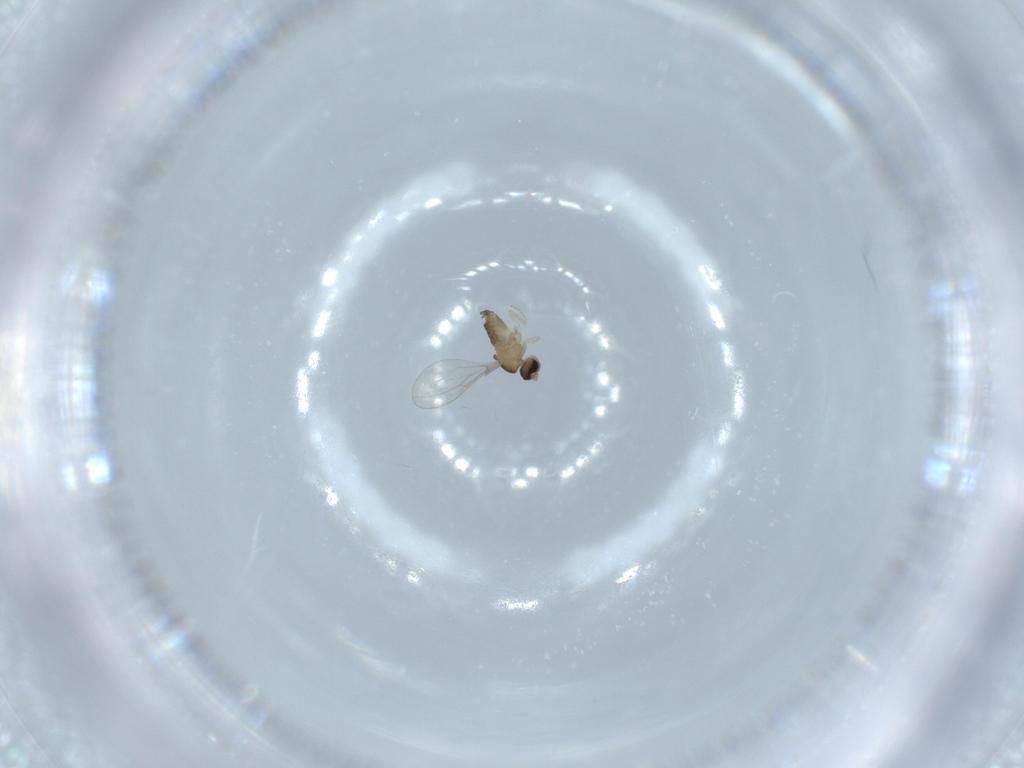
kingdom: Animalia
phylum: Arthropoda
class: Insecta
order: Diptera
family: Cecidomyiidae
